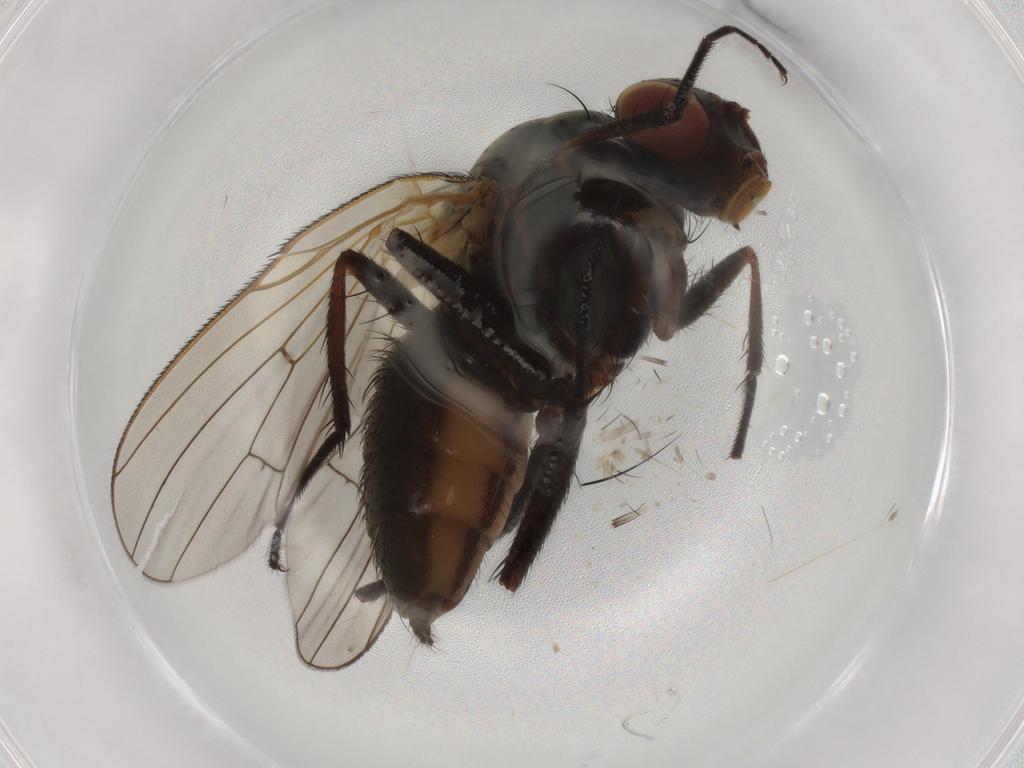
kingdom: Animalia
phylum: Arthropoda
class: Insecta
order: Diptera
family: Anthomyiidae
